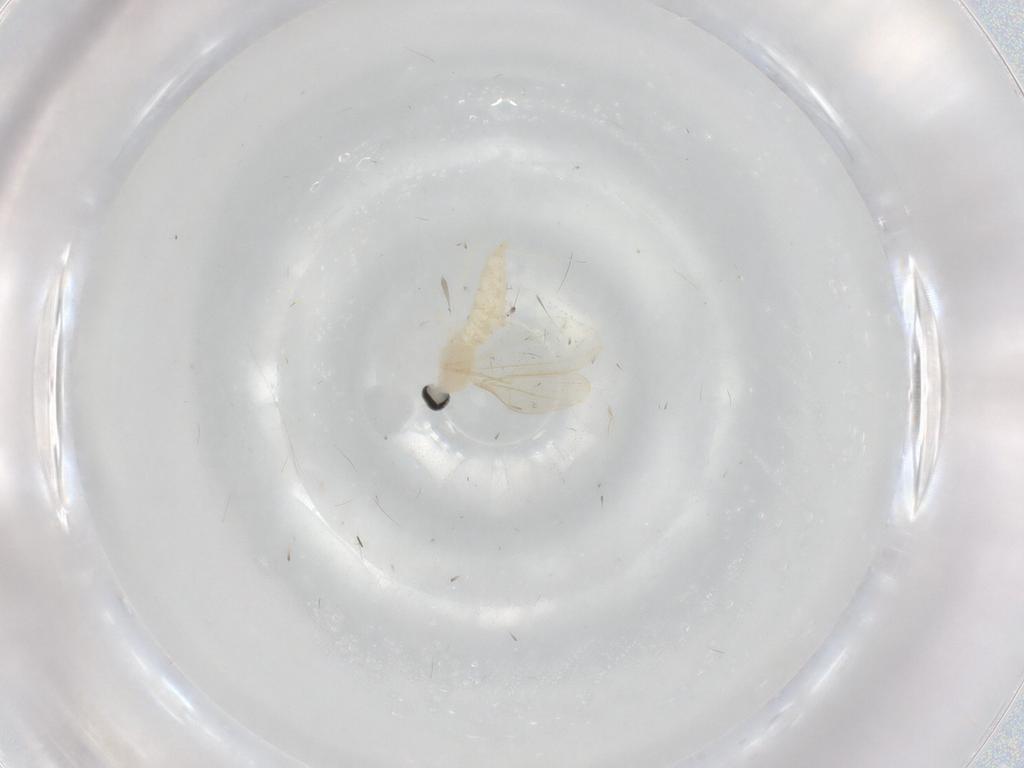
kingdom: Animalia
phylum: Arthropoda
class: Insecta
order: Diptera
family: Cecidomyiidae
